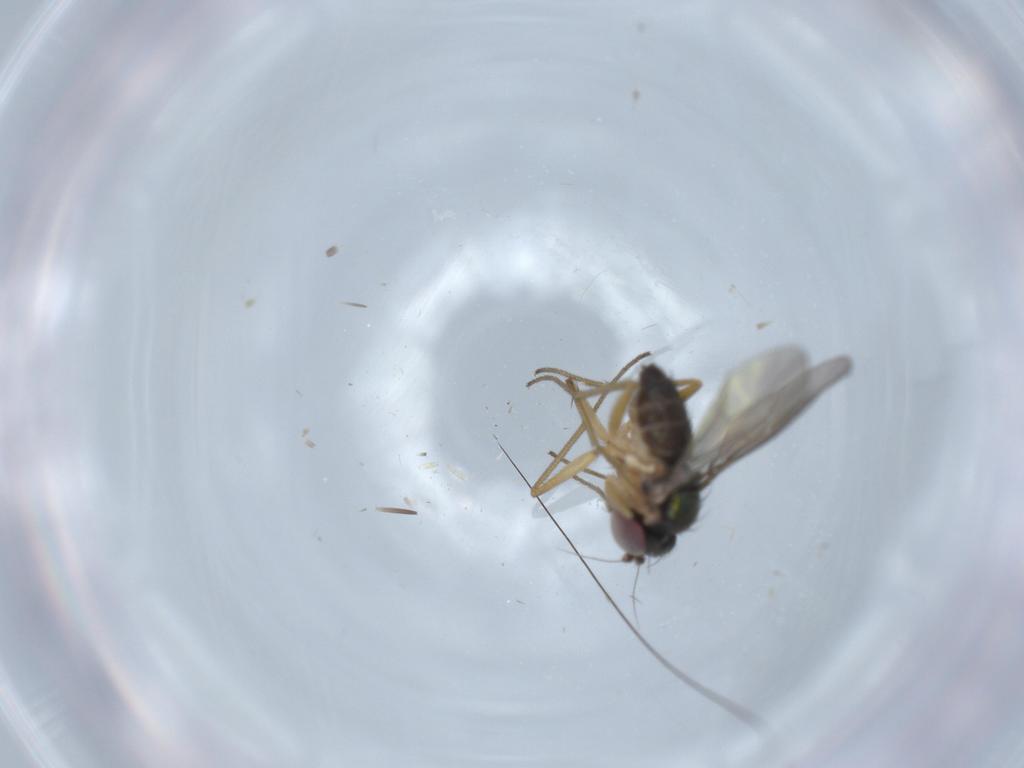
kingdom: Animalia
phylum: Arthropoda
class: Insecta
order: Diptera
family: Dolichopodidae
